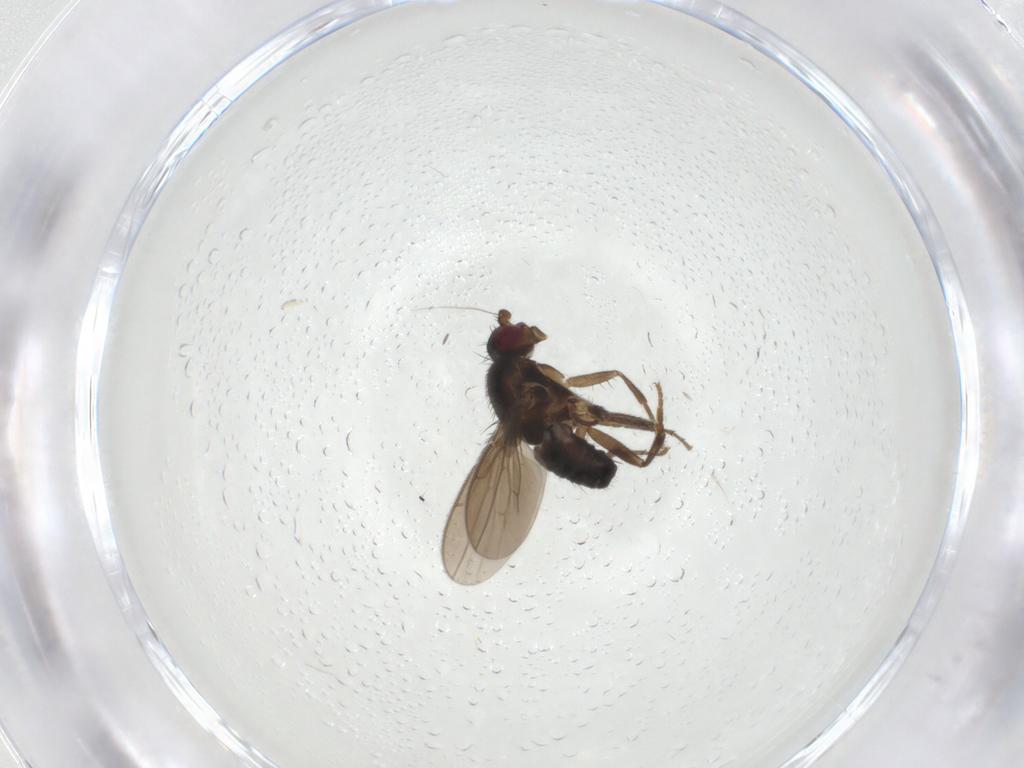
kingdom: Animalia
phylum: Arthropoda
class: Insecta
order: Diptera
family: Sphaeroceridae
